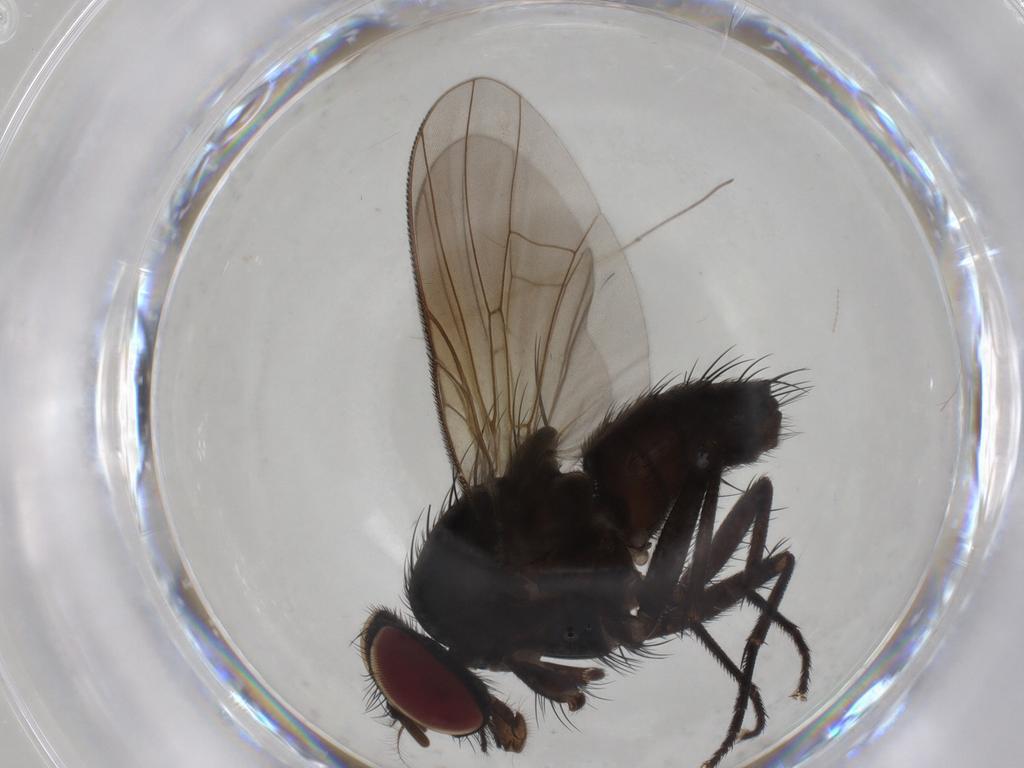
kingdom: Animalia
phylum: Arthropoda
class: Insecta
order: Diptera
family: Muscidae
